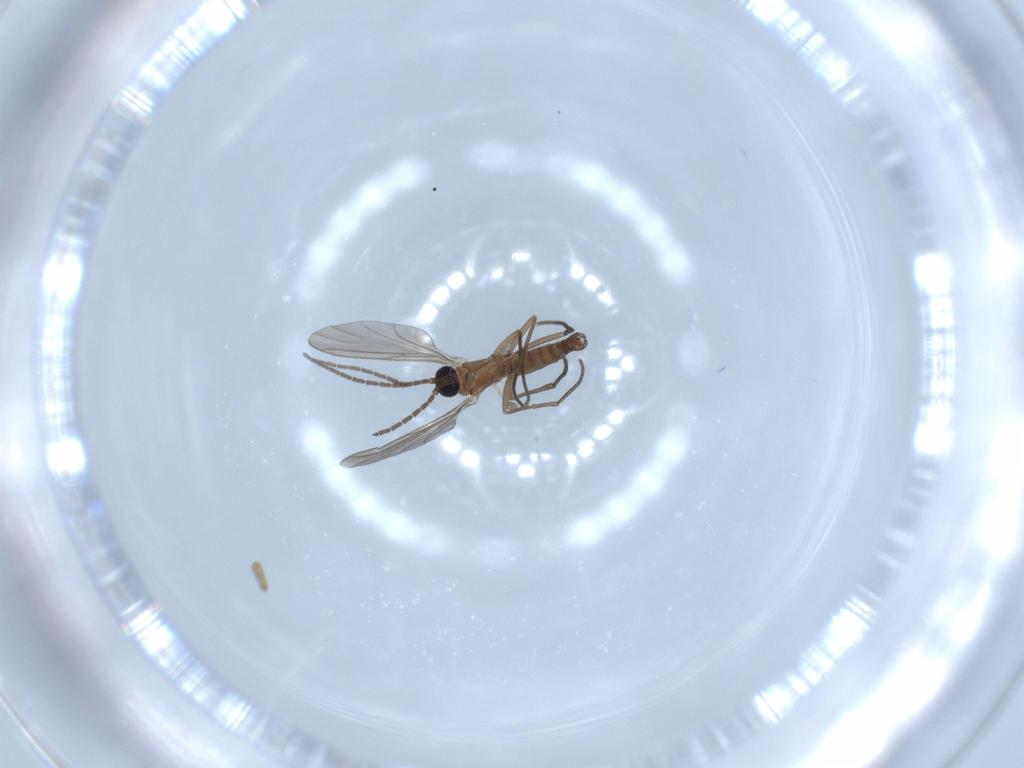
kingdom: Animalia
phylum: Arthropoda
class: Insecta
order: Diptera
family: Cecidomyiidae
